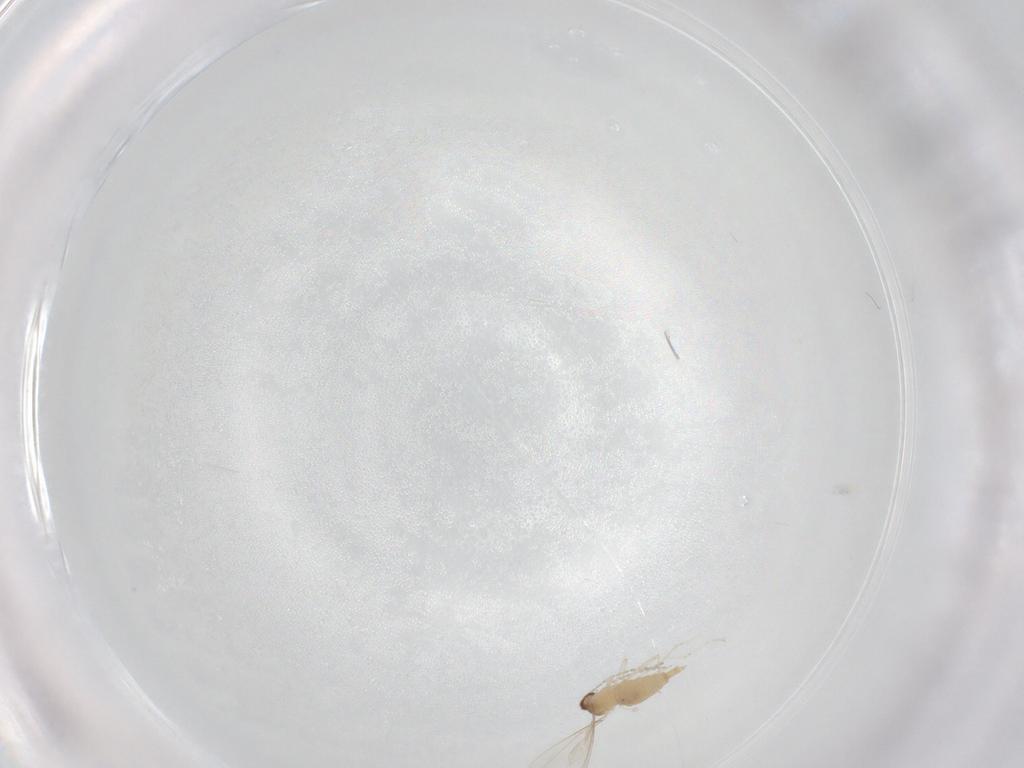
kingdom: Animalia
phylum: Arthropoda
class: Insecta
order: Diptera
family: Cecidomyiidae
